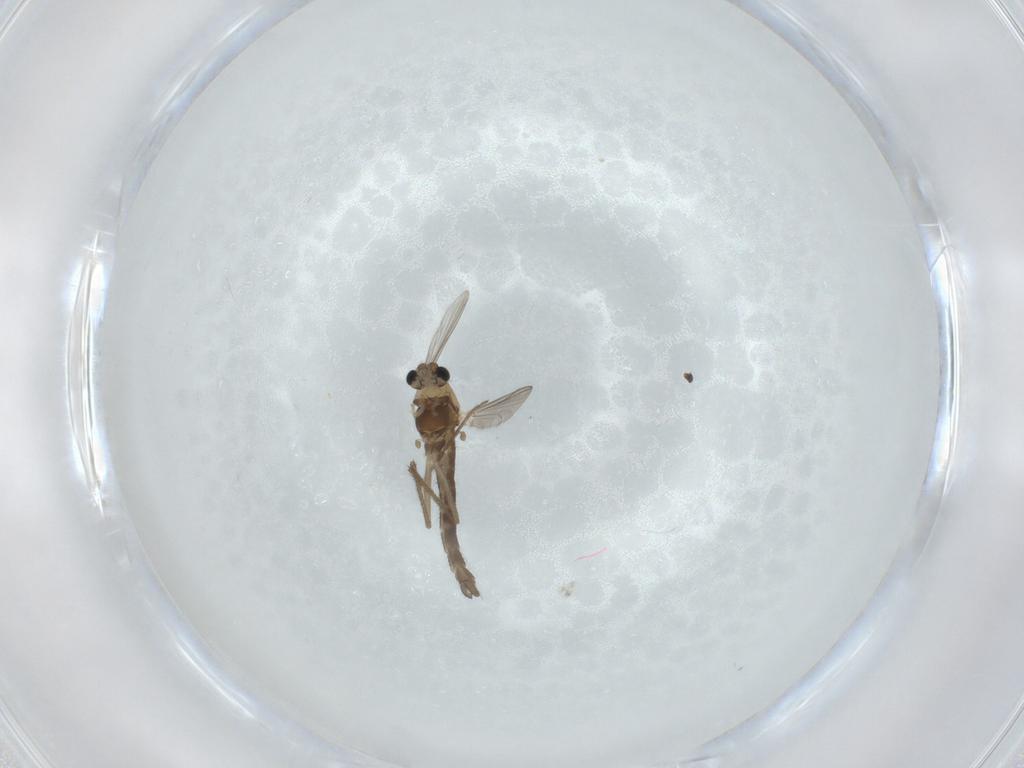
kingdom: Animalia
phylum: Arthropoda
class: Insecta
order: Diptera
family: Chironomidae
